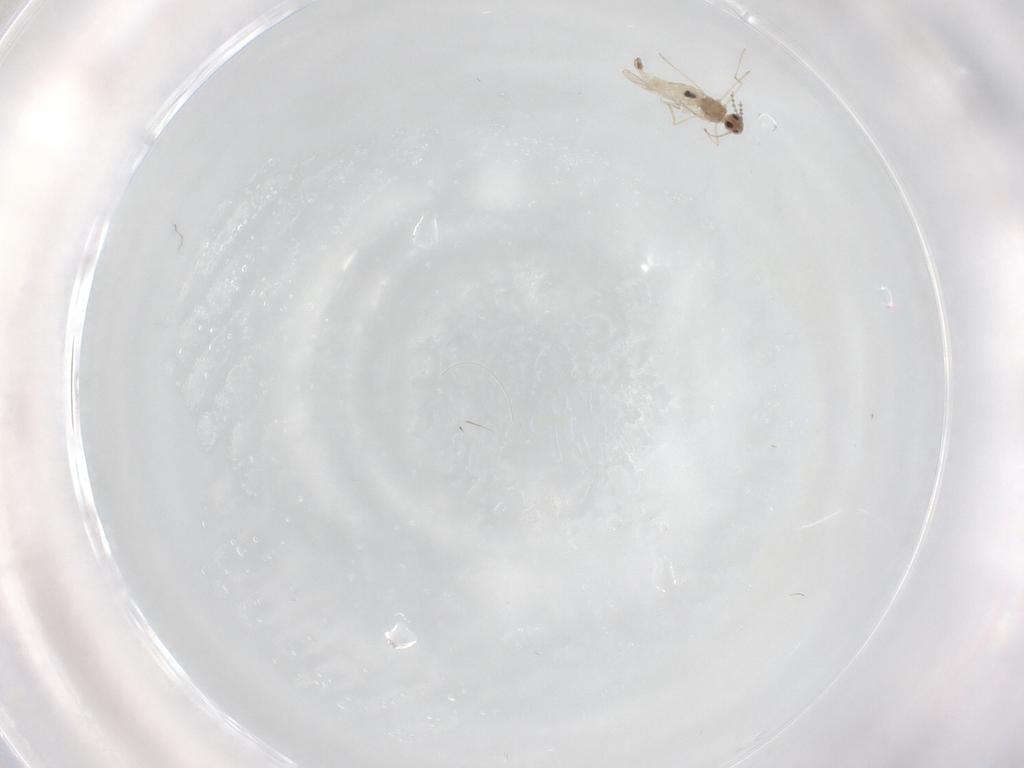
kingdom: Animalia
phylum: Arthropoda
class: Insecta
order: Diptera
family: Cecidomyiidae
